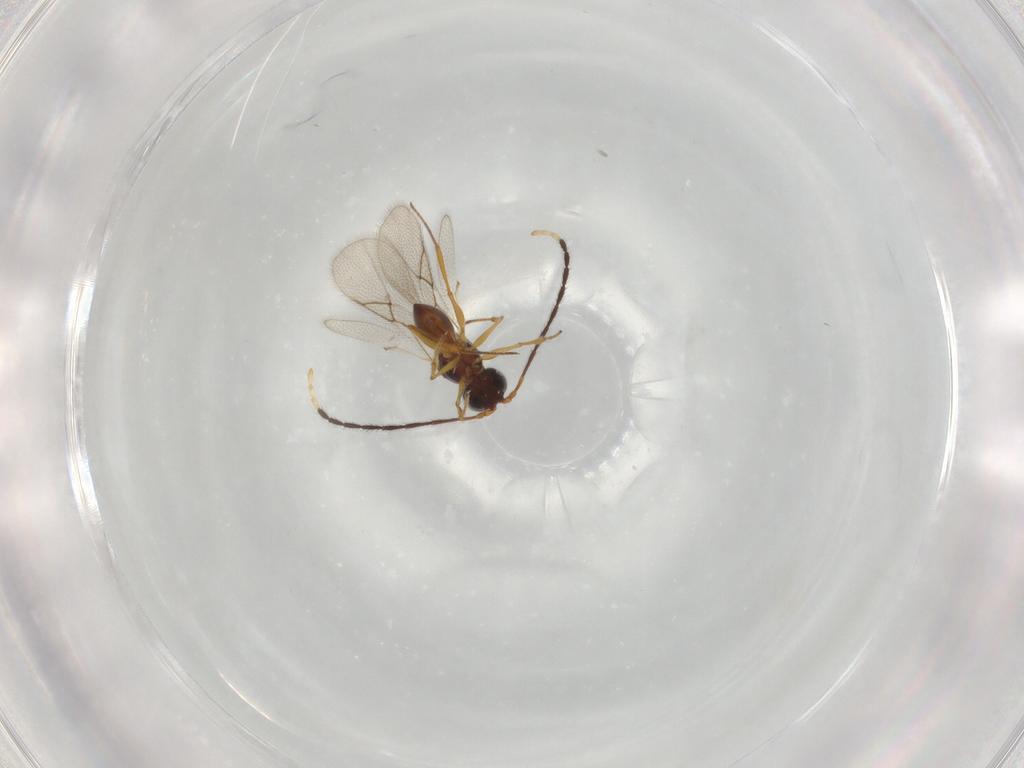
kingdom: Animalia
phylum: Arthropoda
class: Insecta
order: Hymenoptera
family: Figitidae
